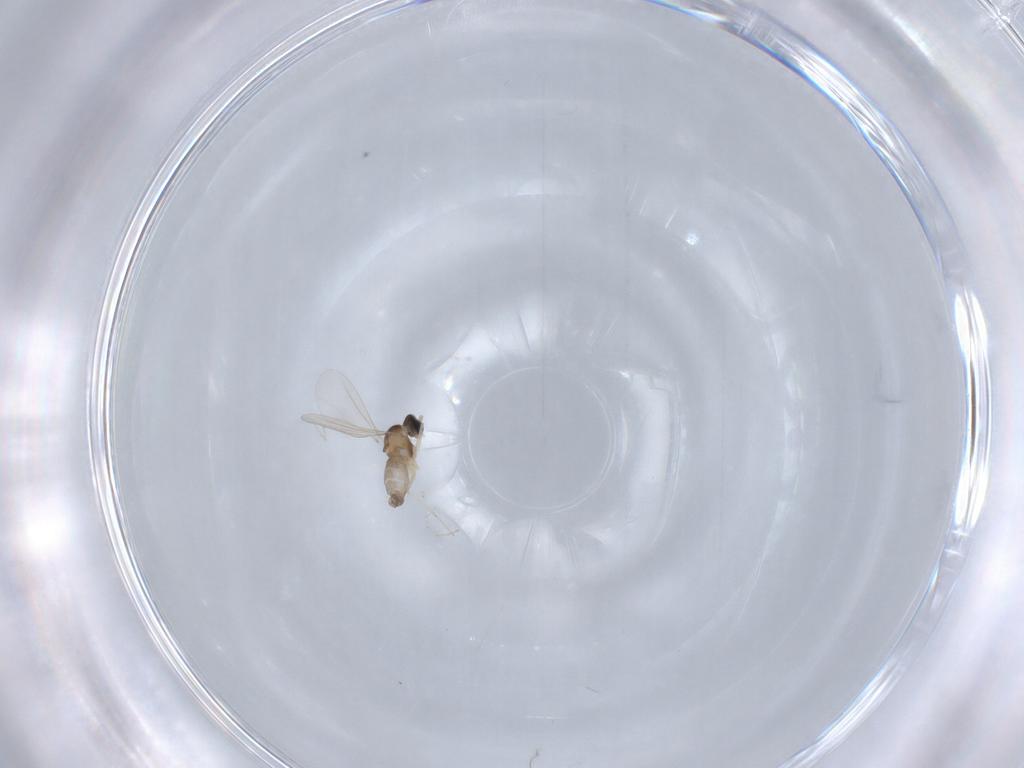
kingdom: Animalia
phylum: Arthropoda
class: Insecta
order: Diptera
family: Cecidomyiidae
